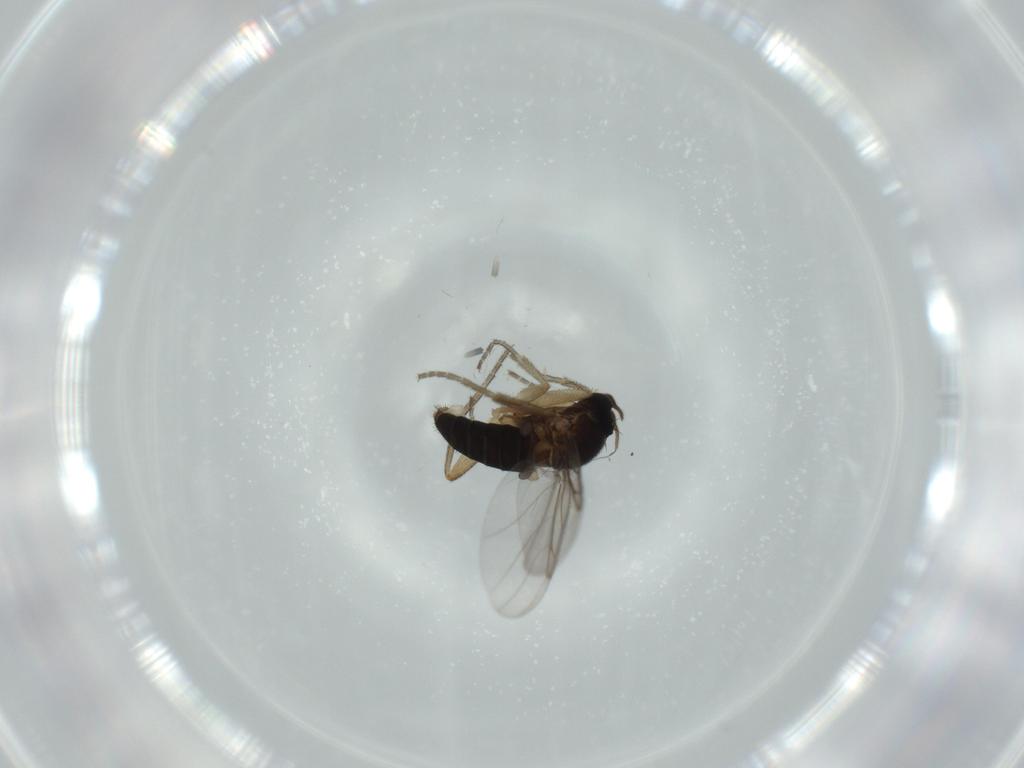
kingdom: Animalia
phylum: Arthropoda
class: Insecta
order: Diptera
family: Cecidomyiidae
